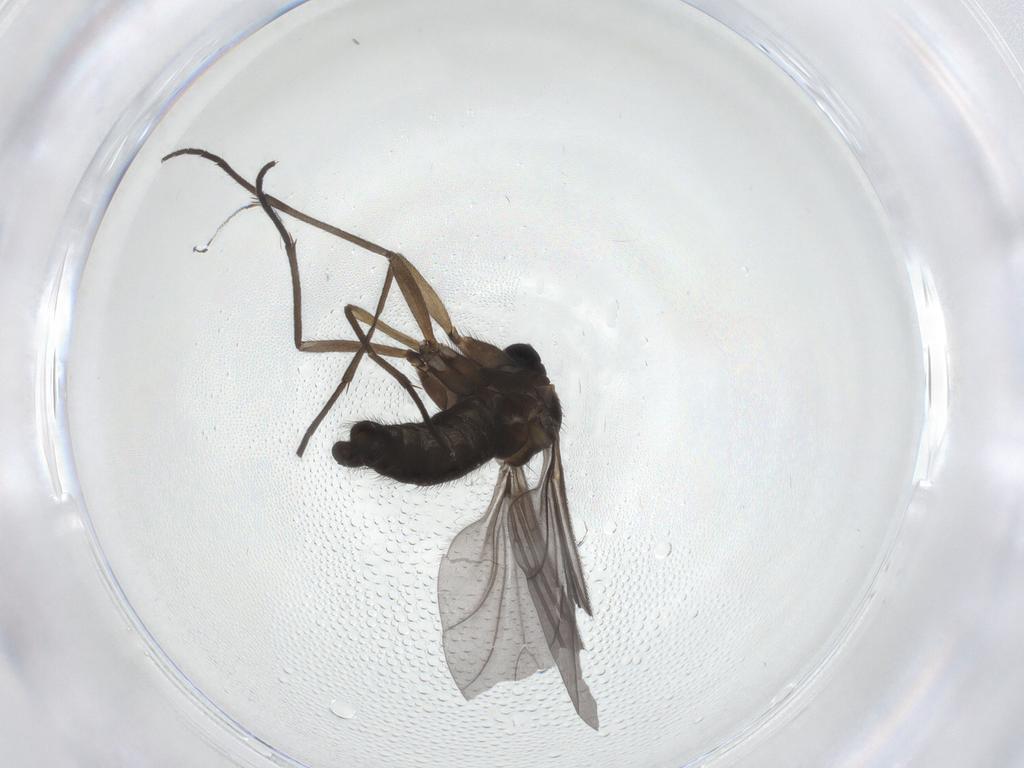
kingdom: Animalia
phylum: Arthropoda
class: Insecta
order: Diptera
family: Sciaridae
